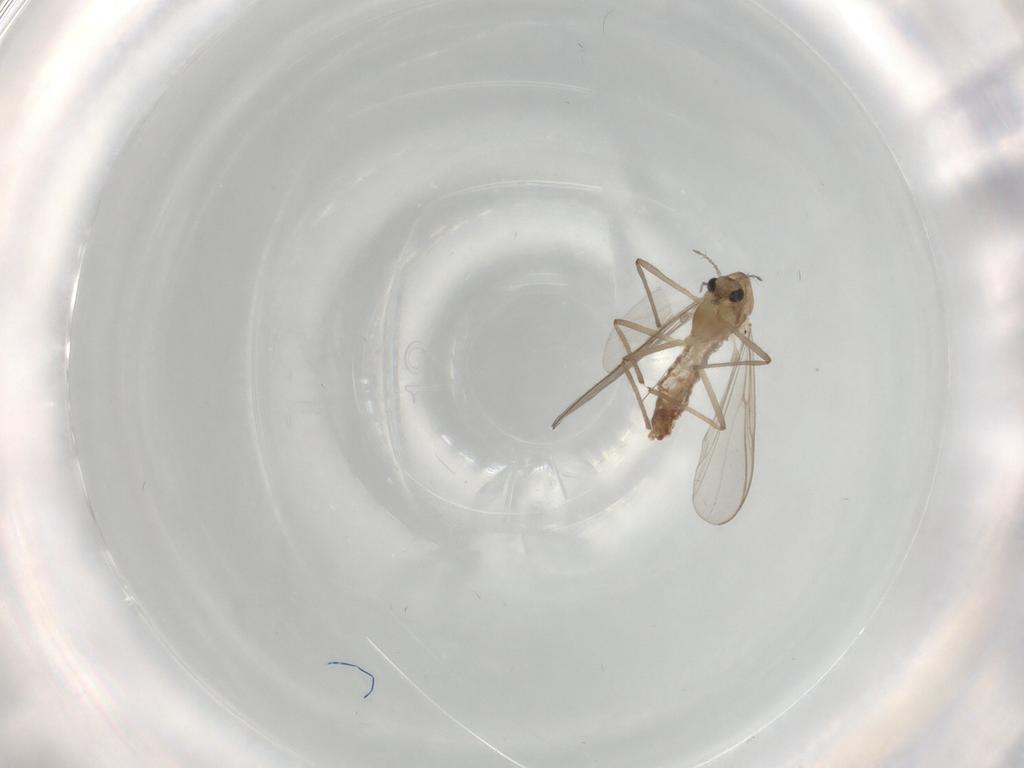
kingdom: Animalia
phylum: Arthropoda
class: Insecta
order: Diptera
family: Chironomidae
